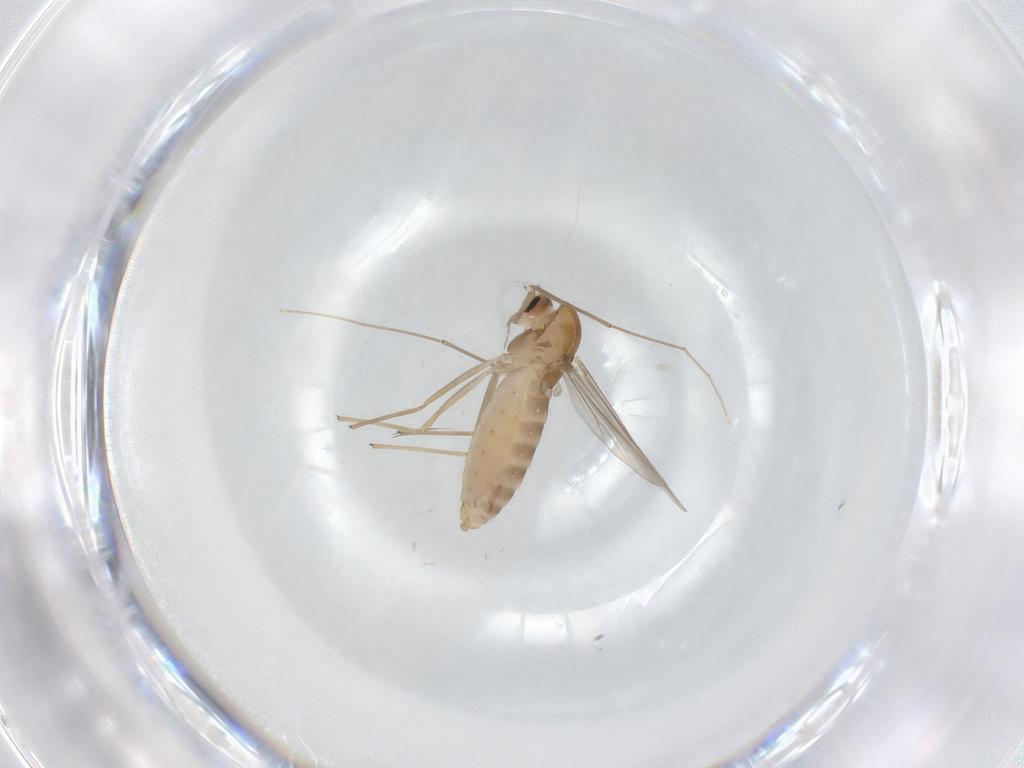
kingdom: Animalia
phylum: Arthropoda
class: Insecta
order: Diptera
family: Chironomidae
